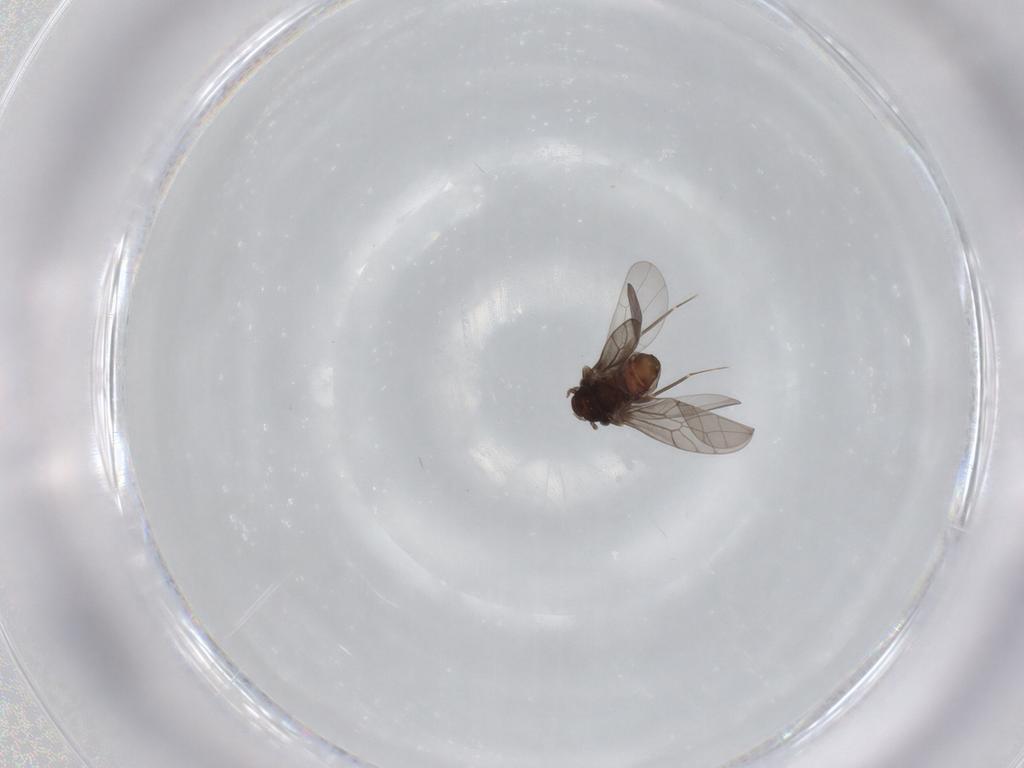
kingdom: Animalia
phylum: Arthropoda
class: Insecta
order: Psocodea
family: Lepidopsocidae
